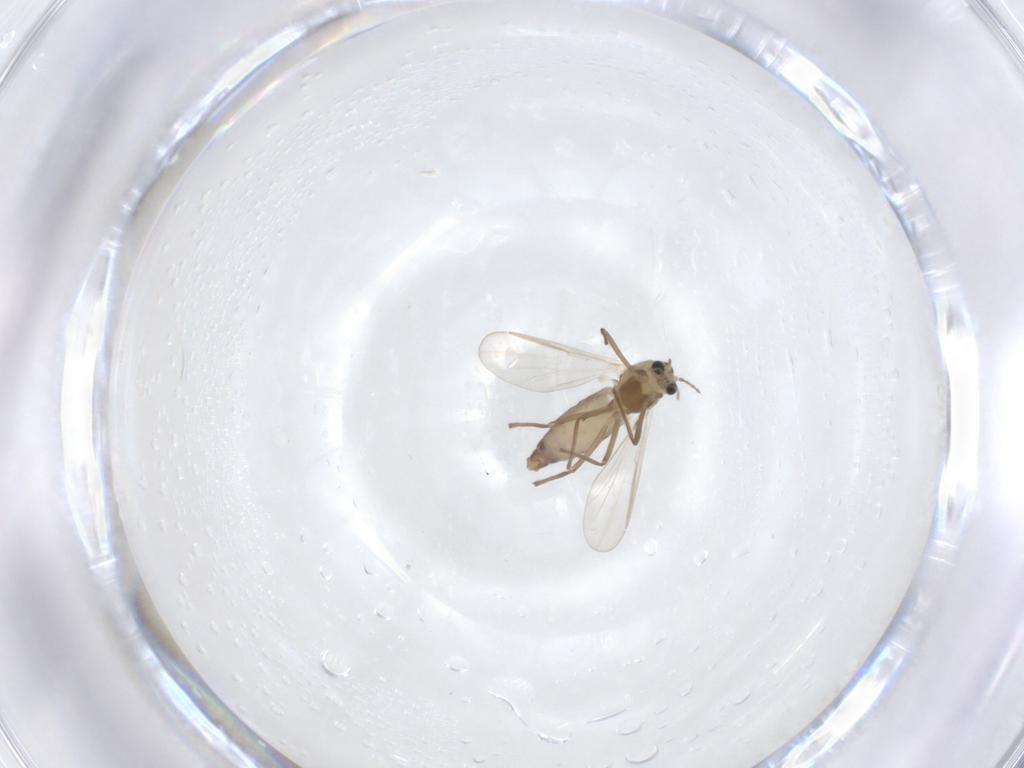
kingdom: Animalia
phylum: Arthropoda
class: Insecta
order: Diptera
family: Chironomidae
